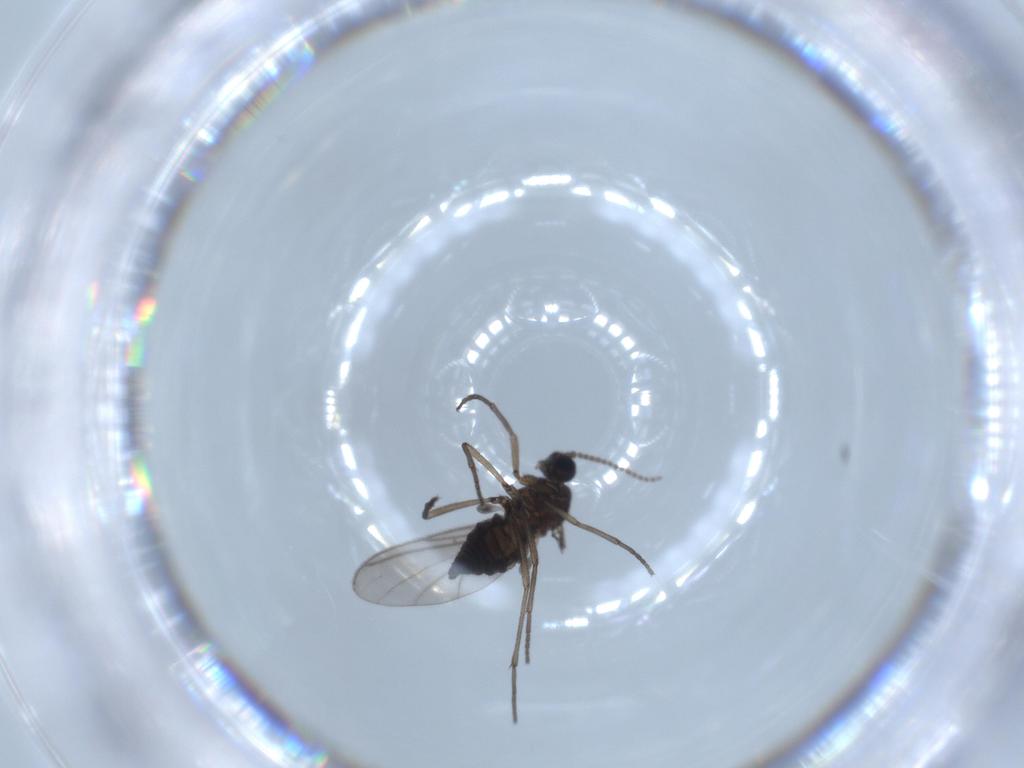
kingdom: Animalia
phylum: Arthropoda
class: Insecta
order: Diptera
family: Sciaridae
